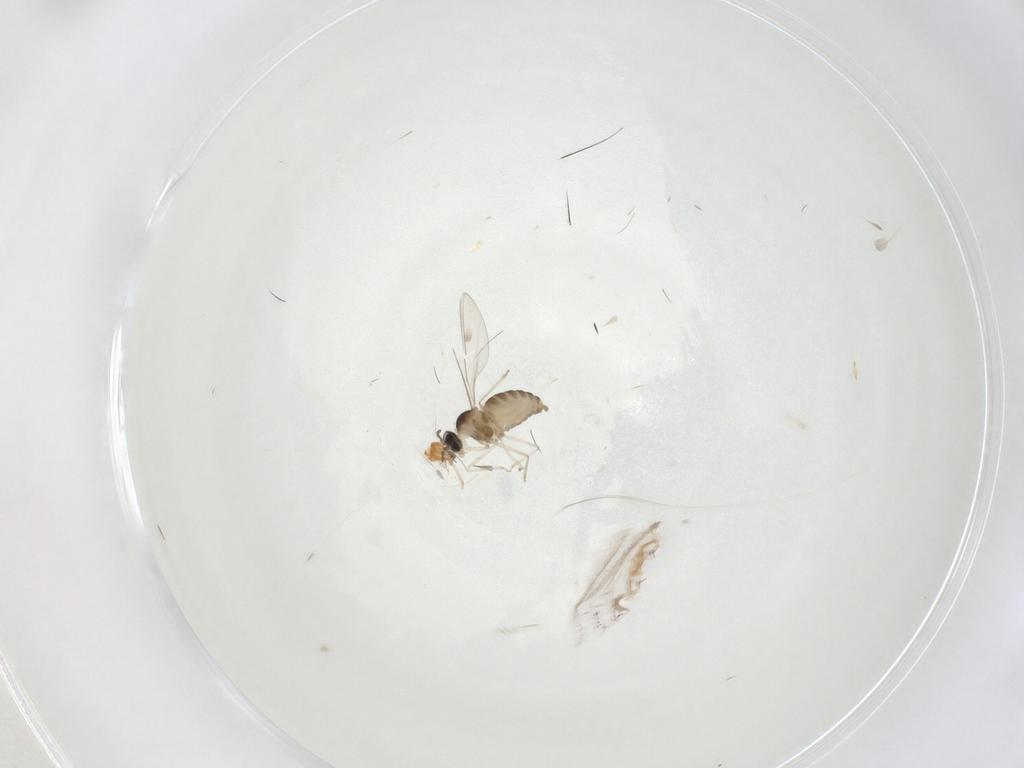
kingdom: Animalia
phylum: Arthropoda
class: Insecta
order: Diptera
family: Cecidomyiidae
